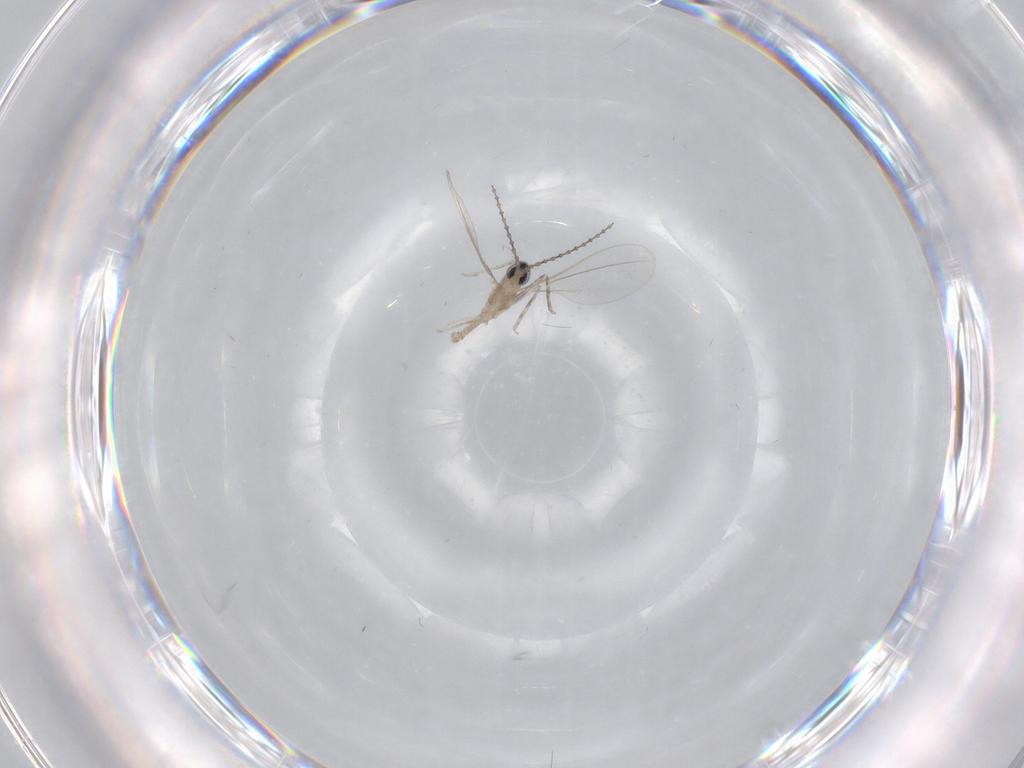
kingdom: Animalia
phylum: Arthropoda
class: Insecta
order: Diptera
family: Cecidomyiidae
